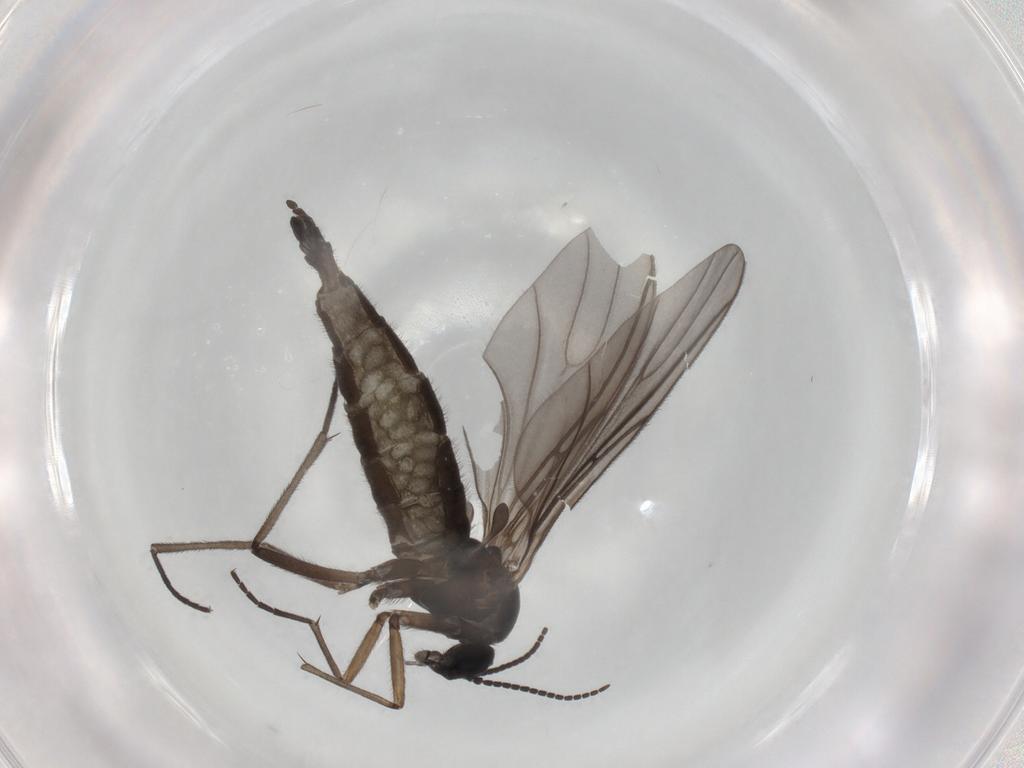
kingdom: Animalia
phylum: Arthropoda
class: Insecta
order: Diptera
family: Sciaridae
